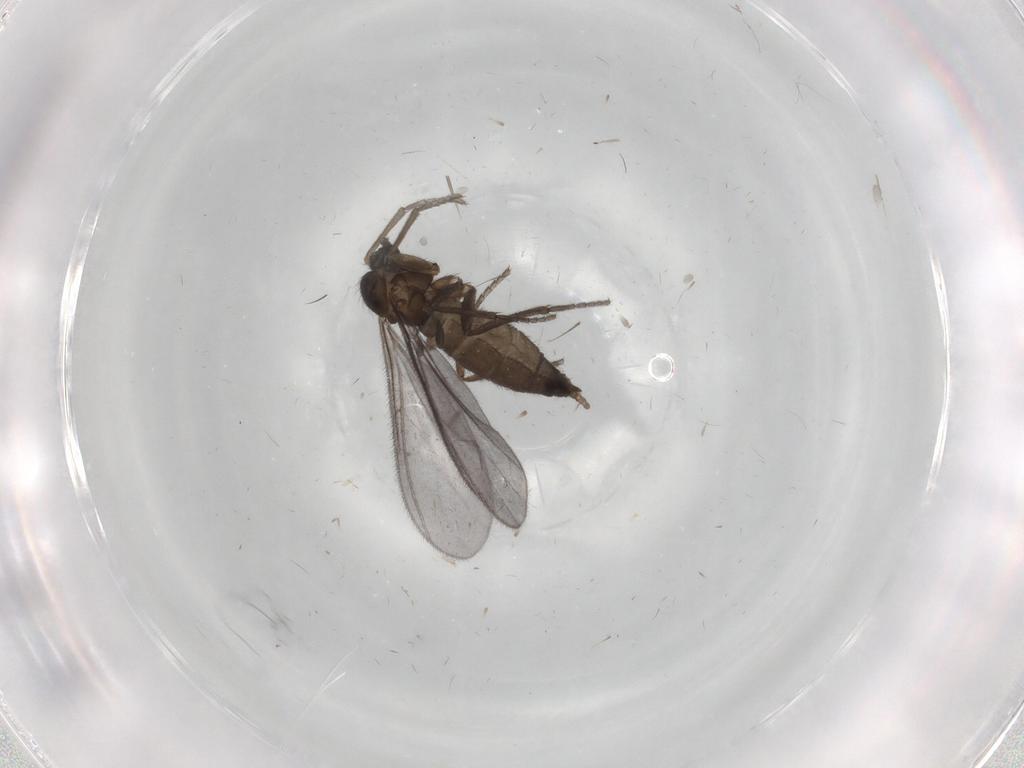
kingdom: Animalia
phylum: Arthropoda
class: Insecta
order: Diptera
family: Sciaridae
